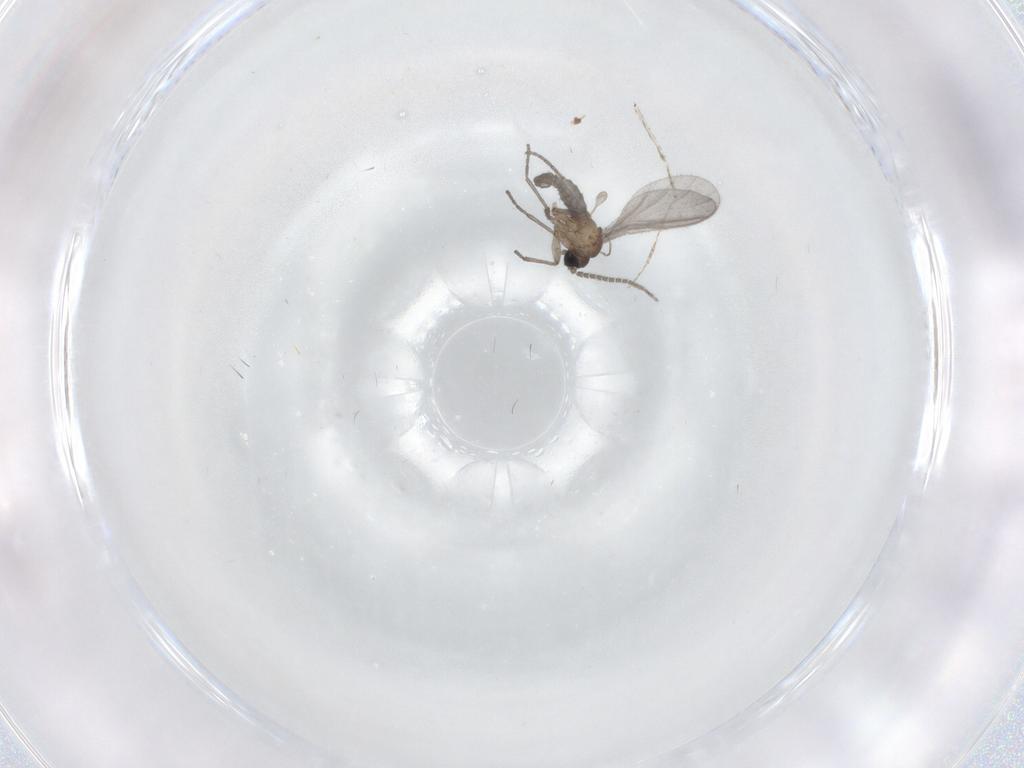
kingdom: Animalia
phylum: Arthropoda
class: Insecta
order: Diptera
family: Sciaridae
